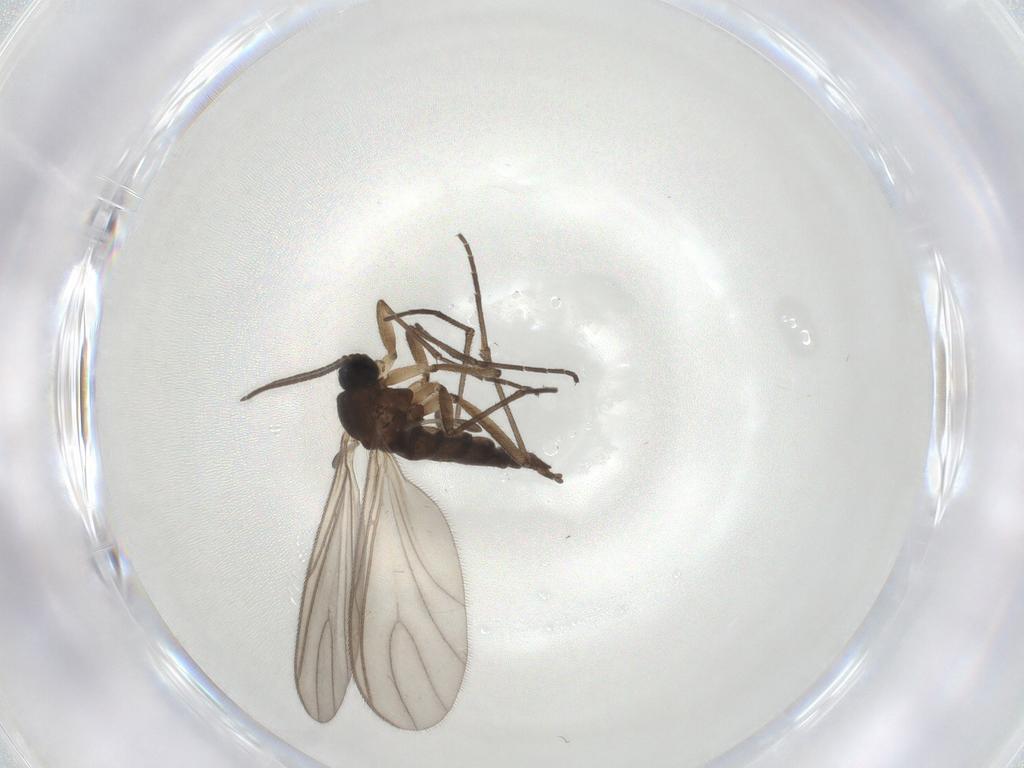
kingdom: Animalia
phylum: Arthropoda
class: Insecta
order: Diptera
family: Sciaridae
